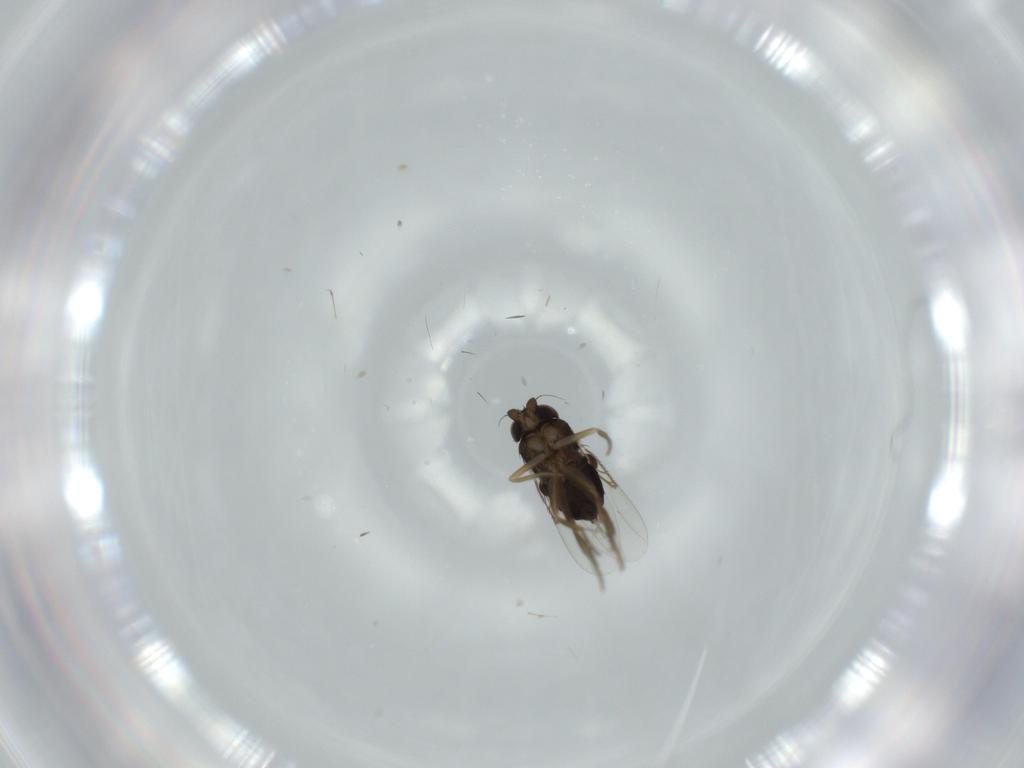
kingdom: Animalia
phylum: Arthropoda
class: Insecta
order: Diptera
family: Phoridae
